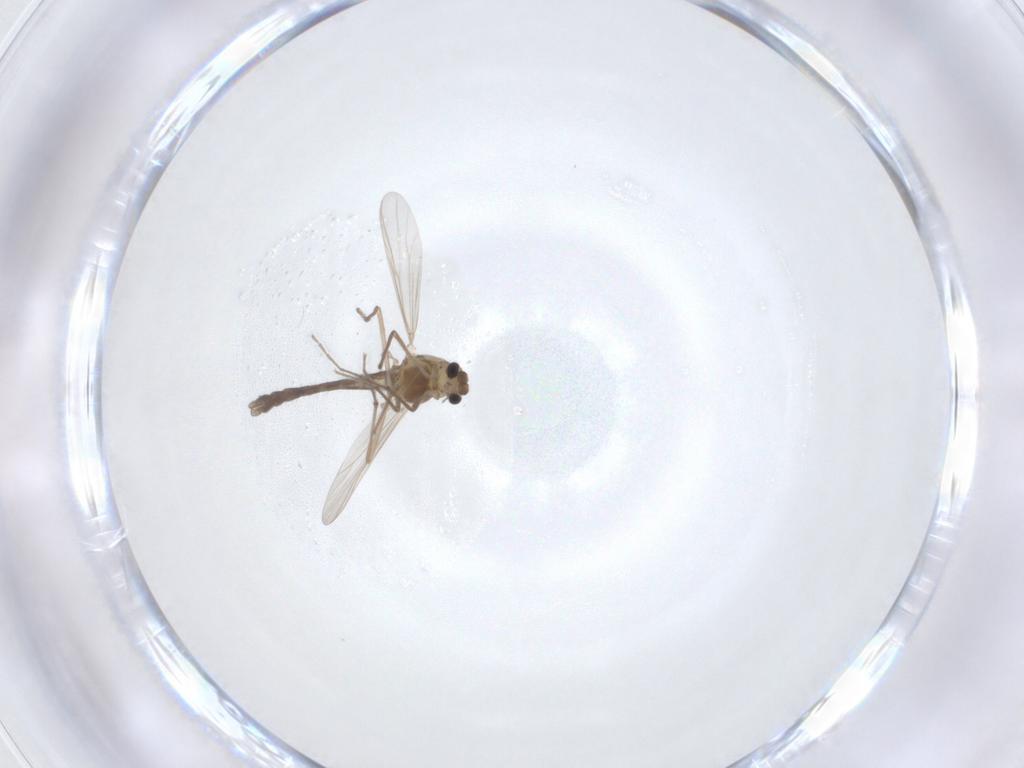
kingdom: Animalia
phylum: Arthropoda
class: Insecta
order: Diptera
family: Chironomidae
